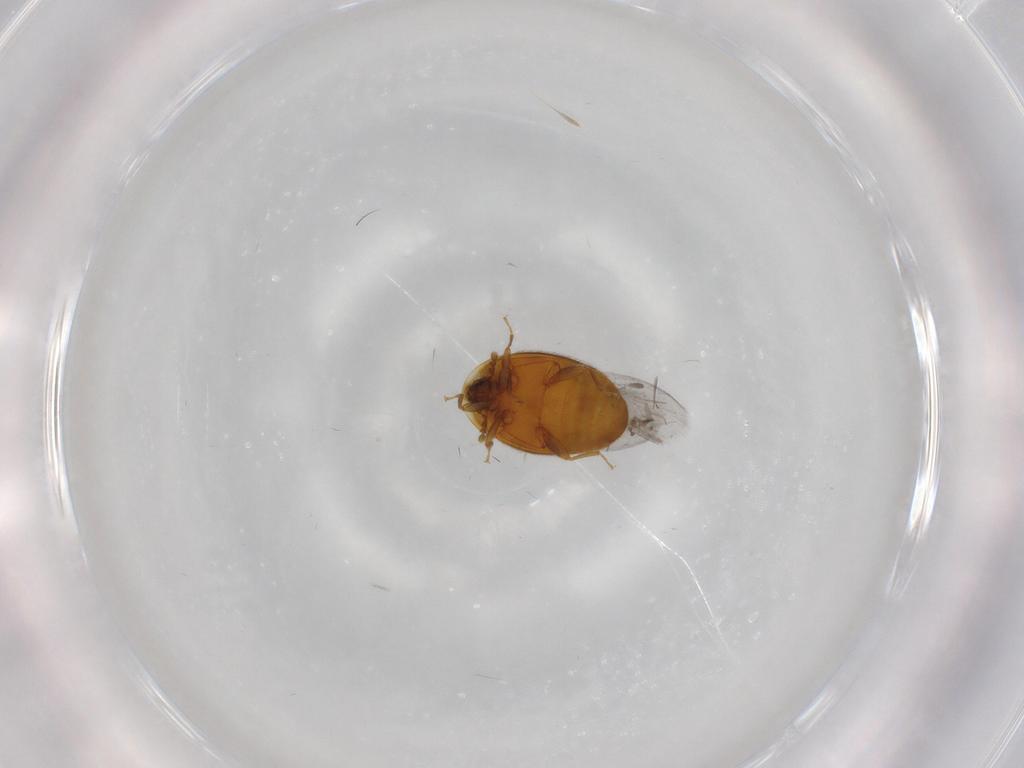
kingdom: Animalia
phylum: Arthropoda
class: Insecta
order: Coleoptera
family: Corylophidae
